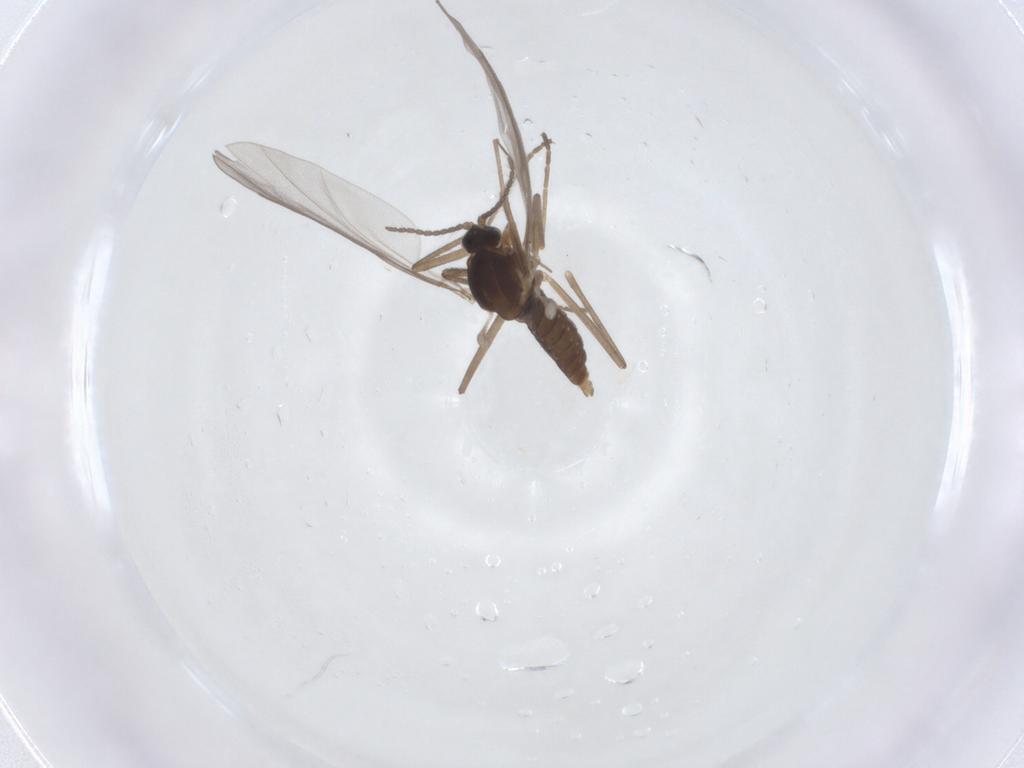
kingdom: Animalia
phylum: Arthropoda
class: Insecta
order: Diptera
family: Cecidomyiidae
